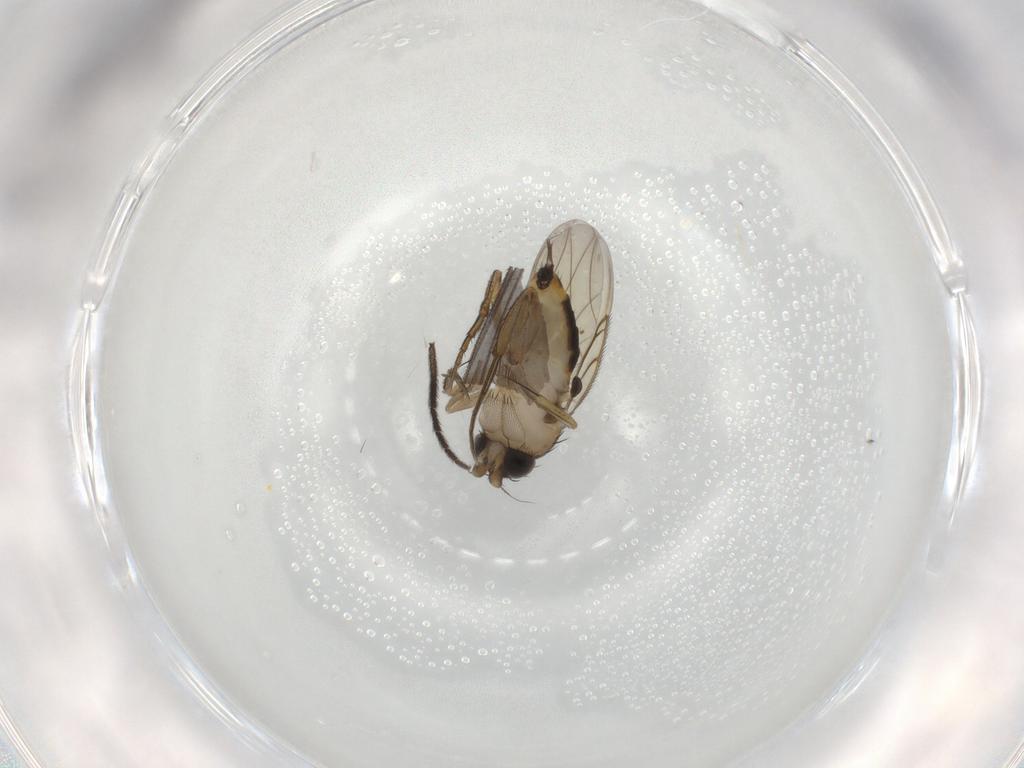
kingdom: Animalia
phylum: Arthropoda
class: Insecta
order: Diptera
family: Phoridae
